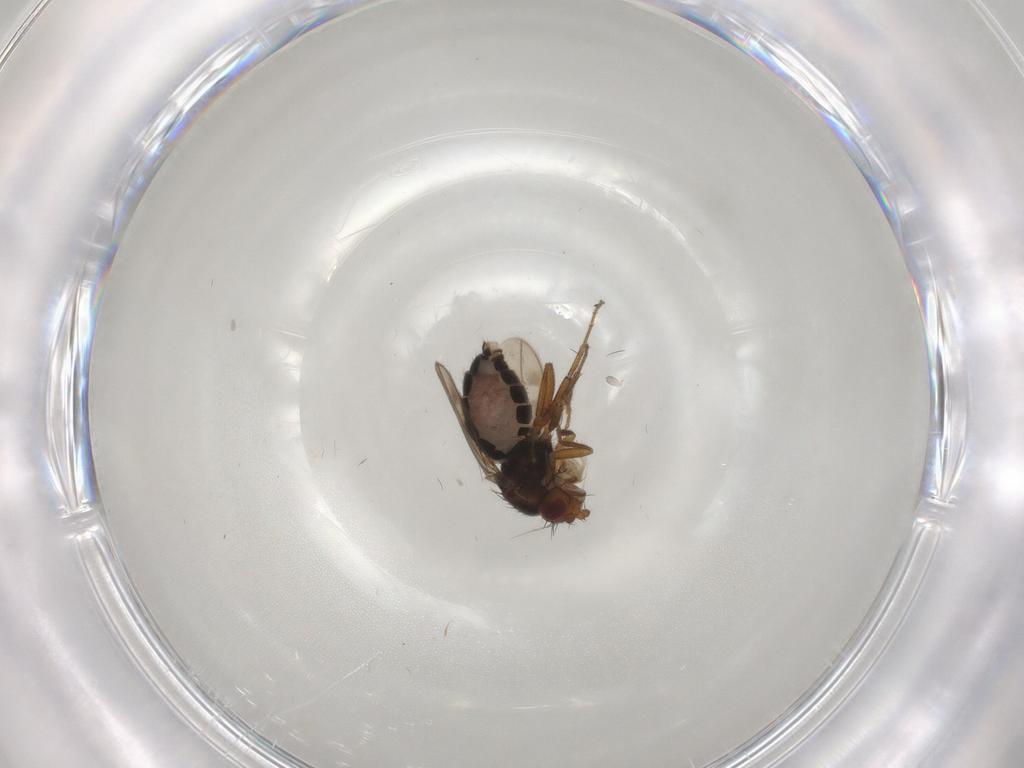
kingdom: Animalia
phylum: Arthropoda
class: Insecta
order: Diptera
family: Sphaeroceridae
